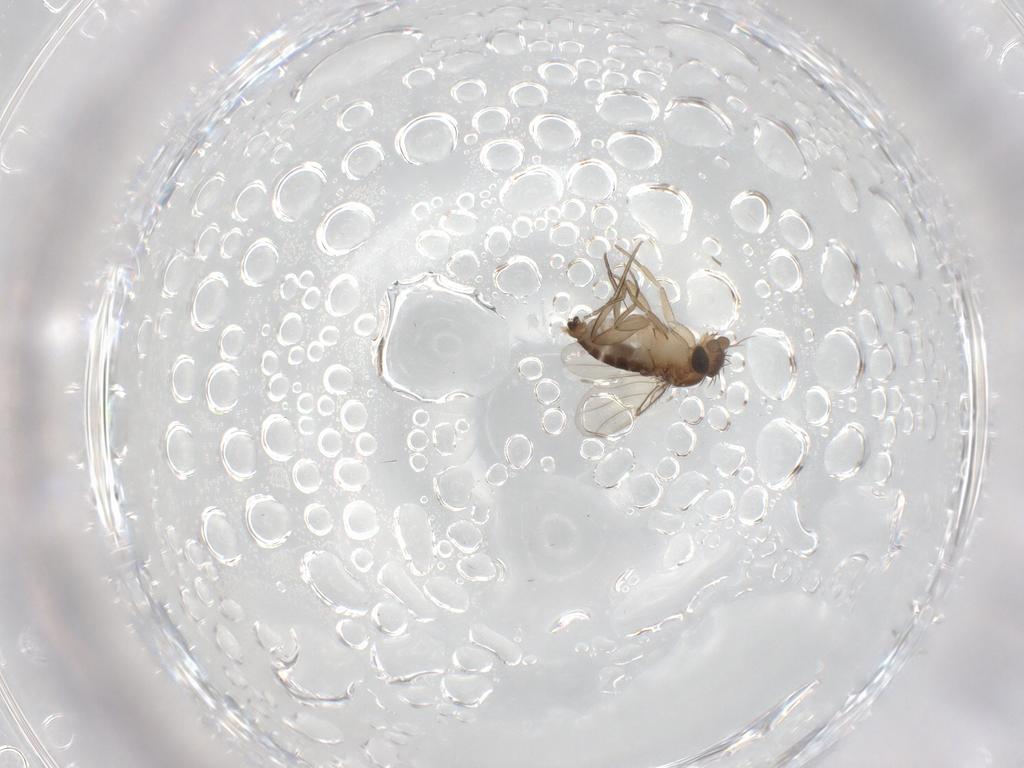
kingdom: Animalia
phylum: Arthropoda
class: Insecta
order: Diptera
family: Phoridae
